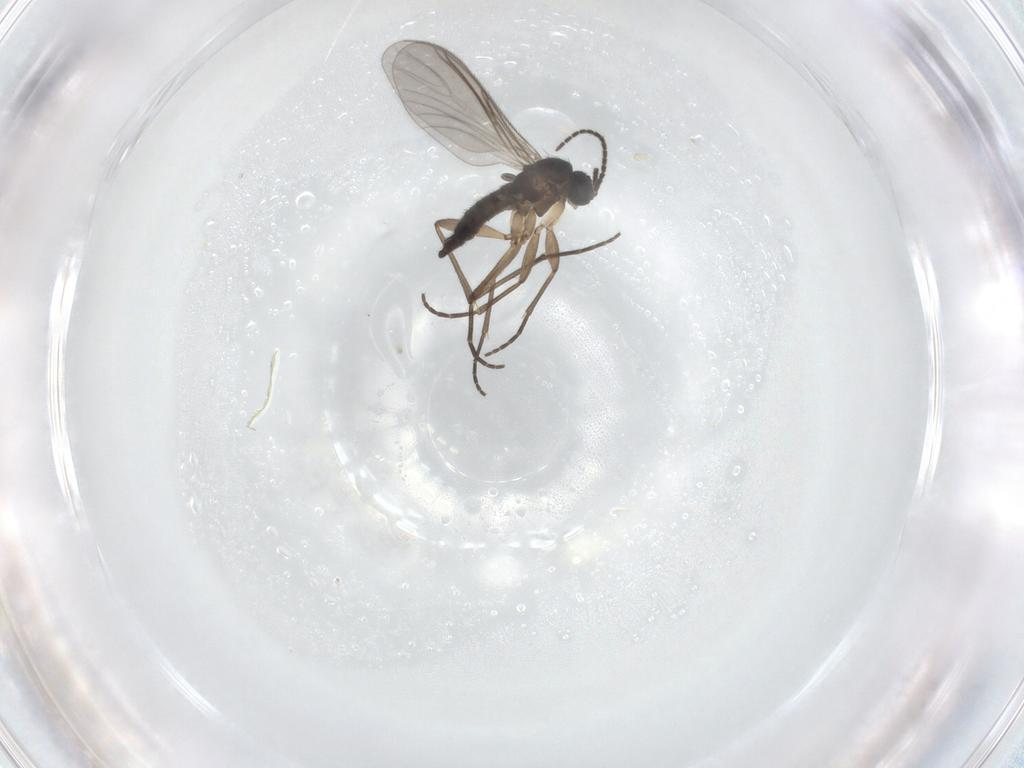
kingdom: Animalia
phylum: Arthropoda
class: Insecta
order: Diptera
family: Sciaridae
